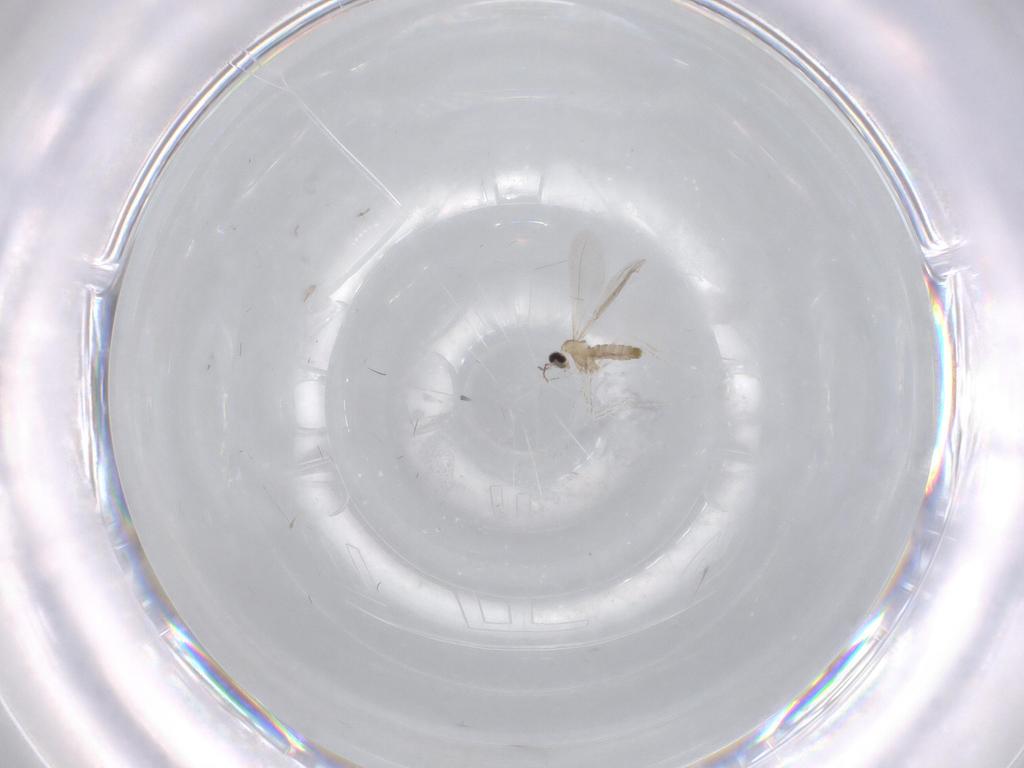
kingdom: Animalia
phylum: Arthropoda
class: Insecta
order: Diptera
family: Cecidomyiidae
